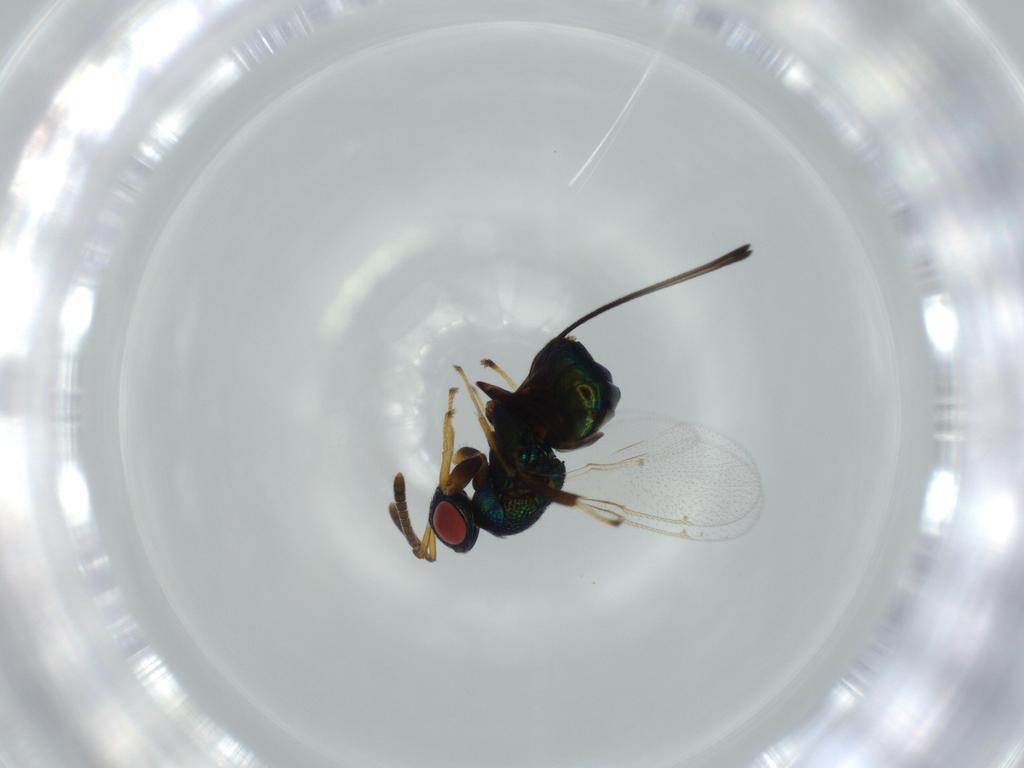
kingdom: Animalia
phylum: Arthropoda
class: Insecta
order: Hymenoptera
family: Torymidae
